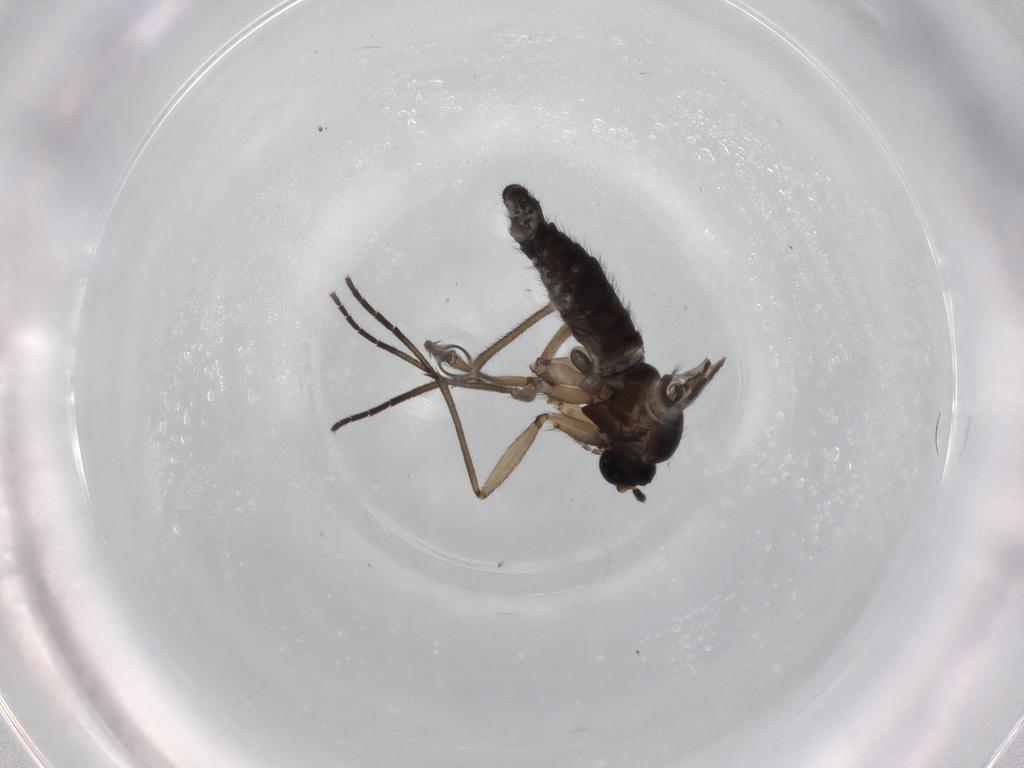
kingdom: Animalia
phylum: Arthropoda
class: Insecta
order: Diptera
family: Sciaridae
